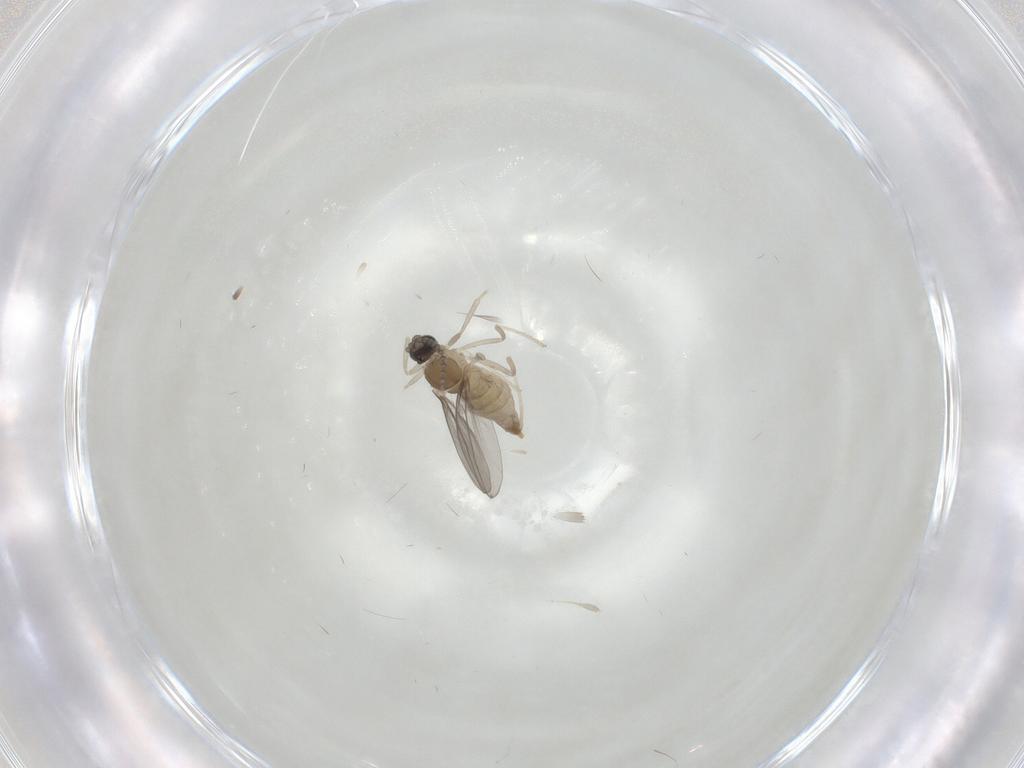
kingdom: Animalia
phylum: Arthropoda
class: Insecta
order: Diptera
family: Cecidomyiidae
